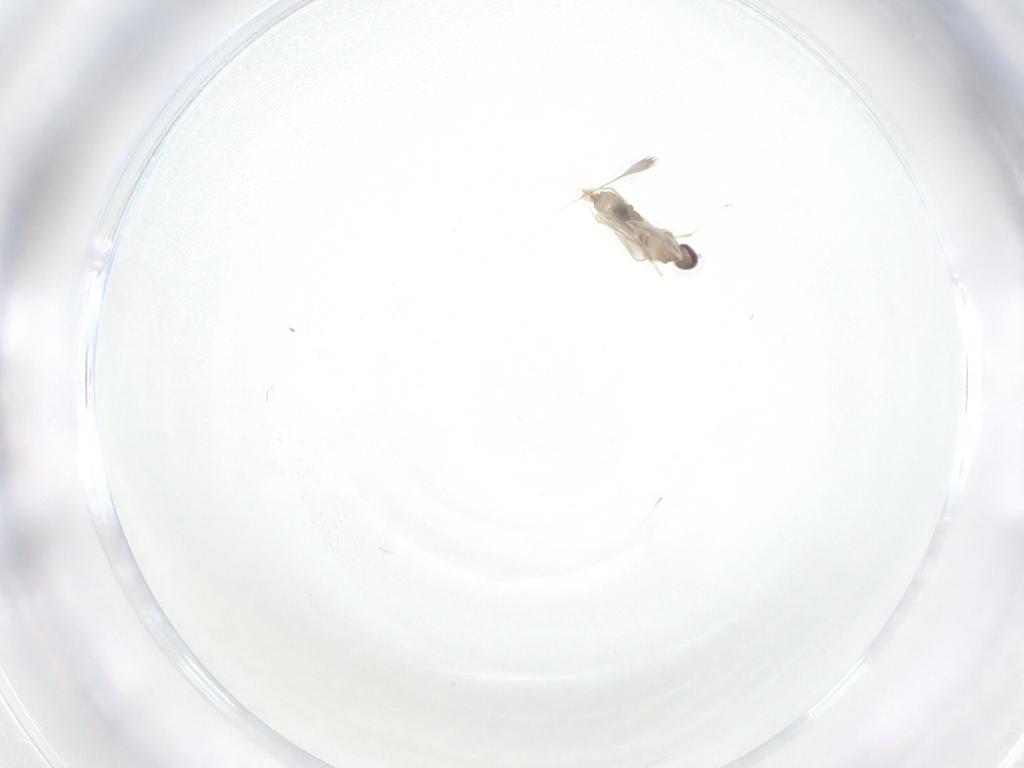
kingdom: Animalia
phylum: Arthropoda
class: Insecta
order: Diptera
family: Cecidomyiidae
